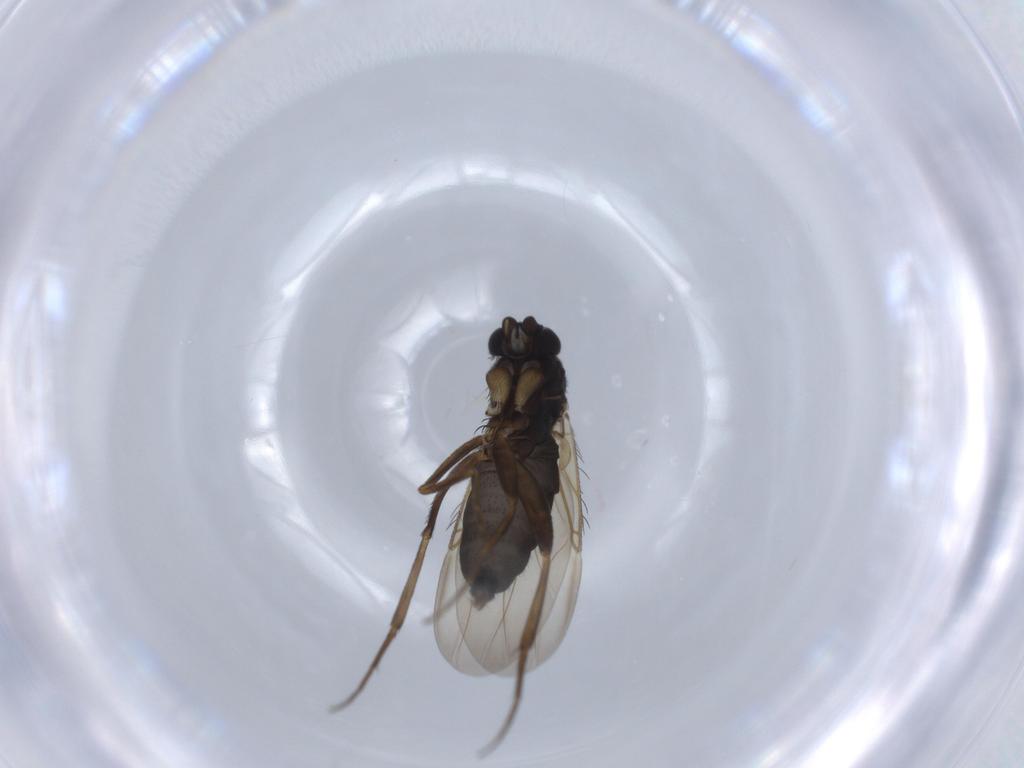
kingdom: Animalia
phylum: Arthropoda
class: Insecta
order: Diptera
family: Phoridae
